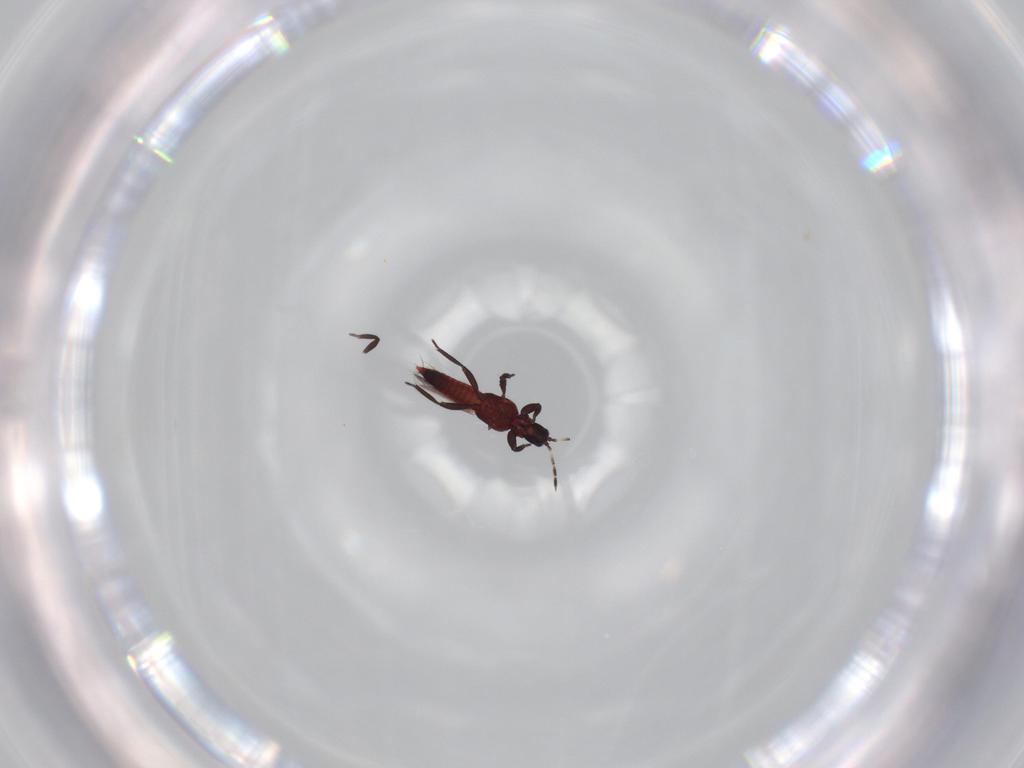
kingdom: Animalia
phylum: Arthropoda
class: Insecta
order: Thysanoptera
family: Aeolothripidae
